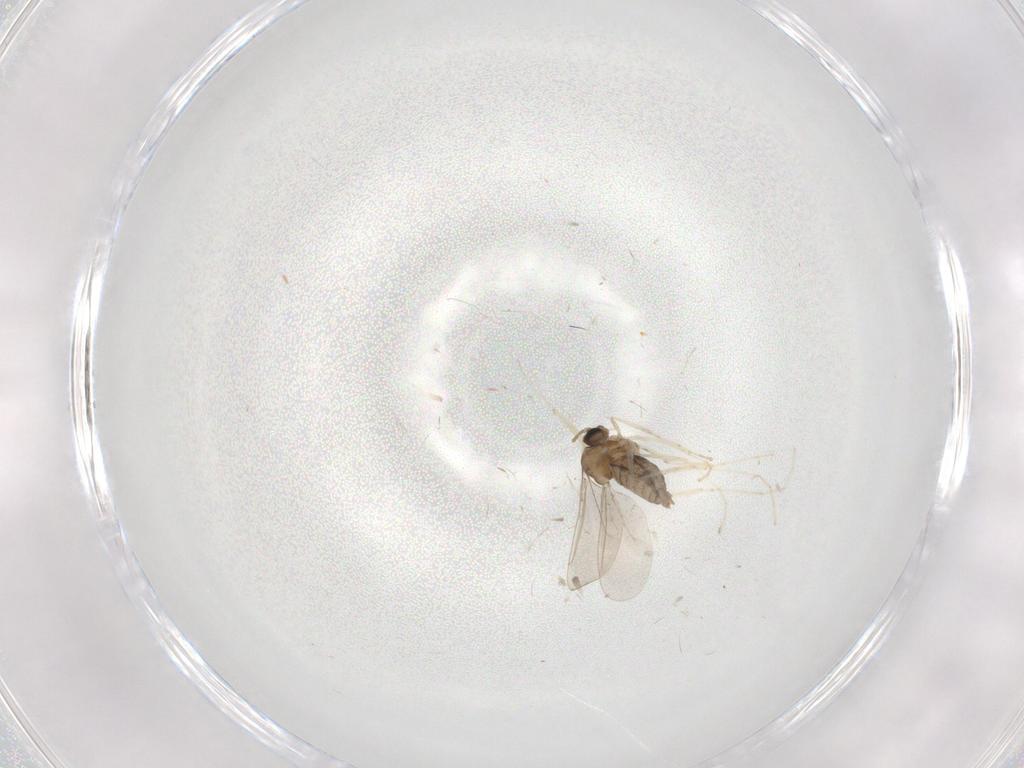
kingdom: Animalia
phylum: Arthropoda
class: Insecta
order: Diptera
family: Cecidomyiidae
